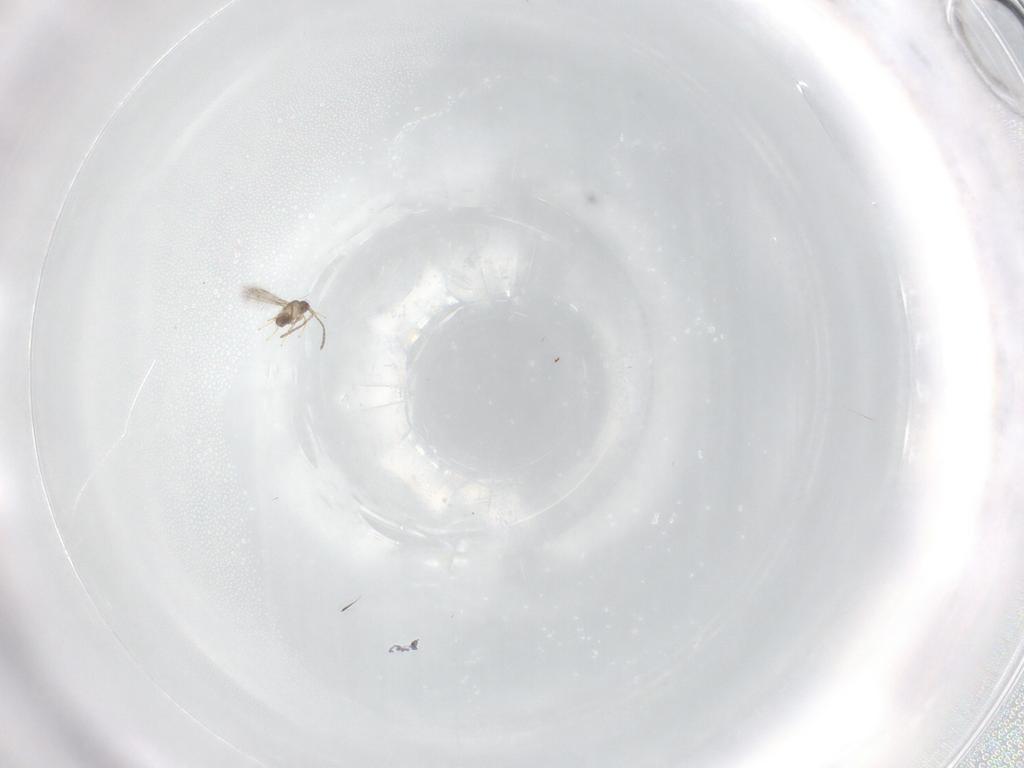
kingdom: Animalia
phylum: Arthropoda
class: Insecta
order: Hymenoptera
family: Mymaridae
